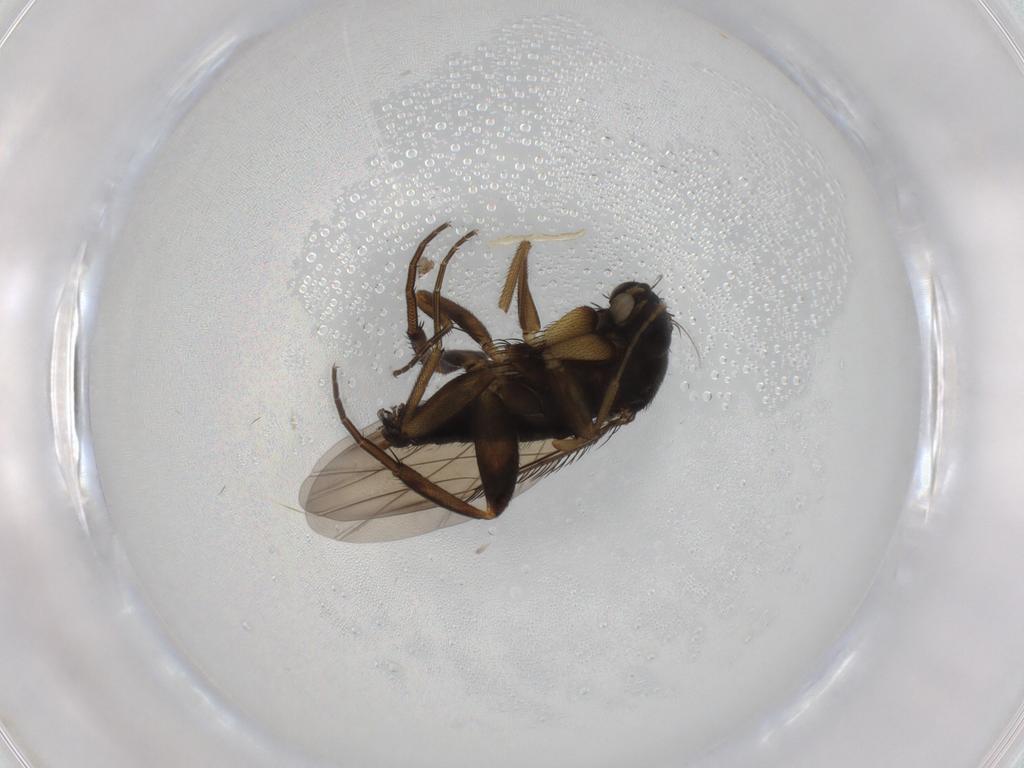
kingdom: Animalia
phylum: Arthropoda
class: Insecta
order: Diptera
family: Phoridae
